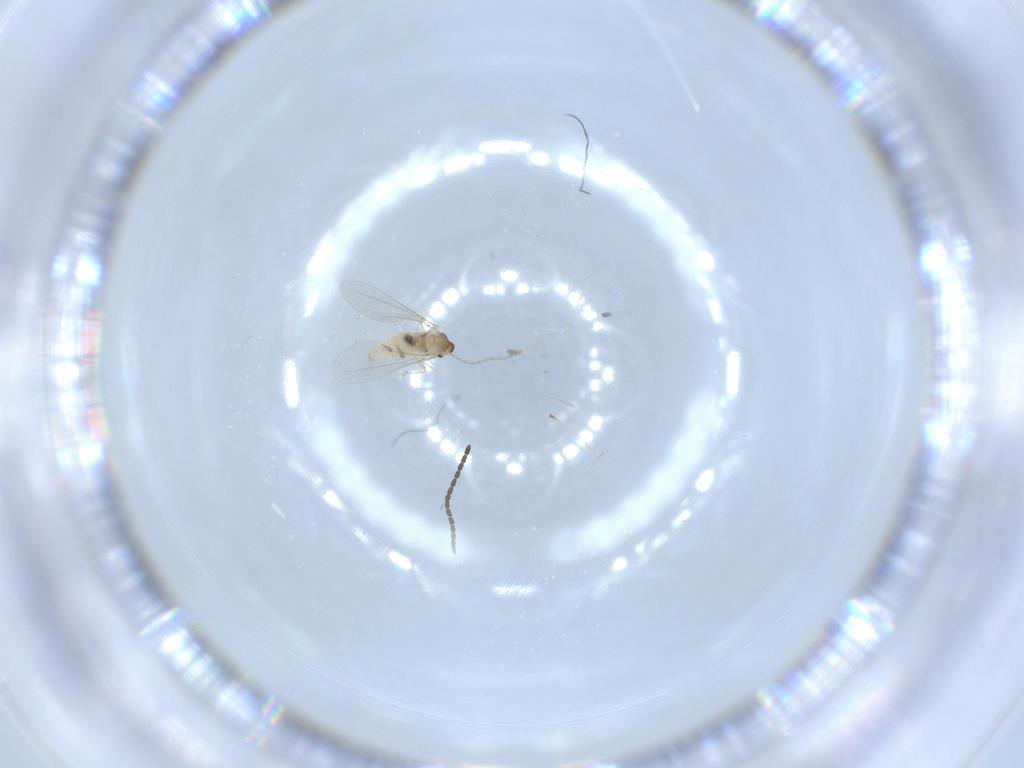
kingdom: Animalia
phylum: Arthropoda
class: Insecta
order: Diptera
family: Cecidomyiidae
